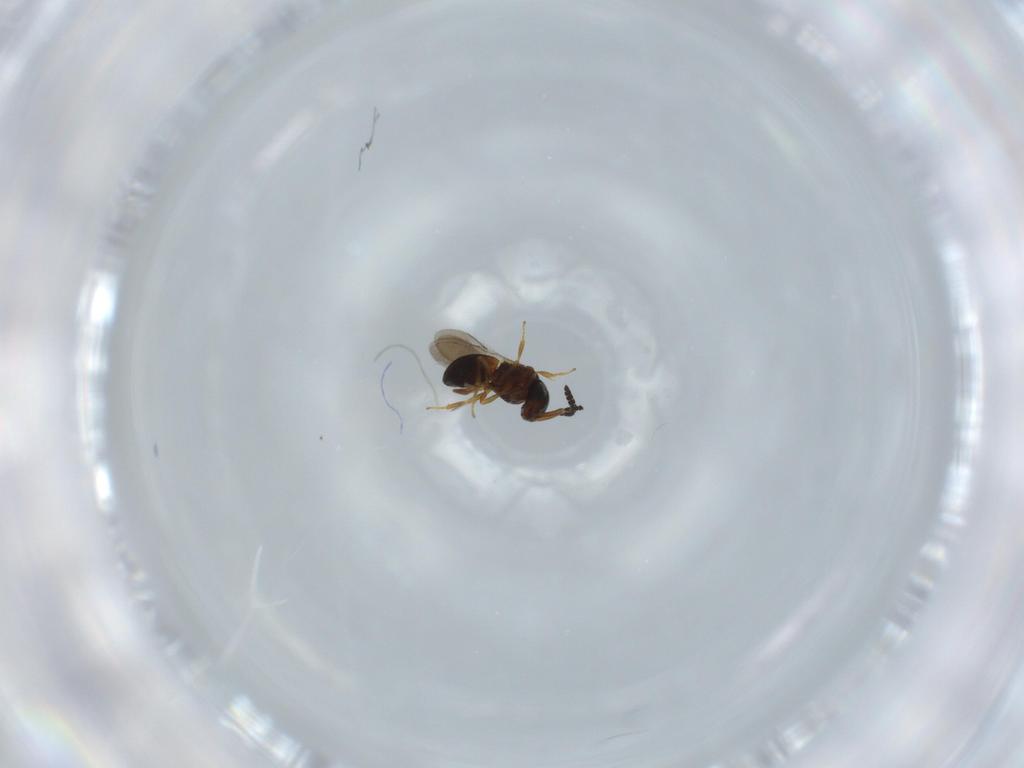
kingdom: Animalia
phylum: Arthropoda
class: Insecta
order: Hymenoptera
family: Scelionidae
